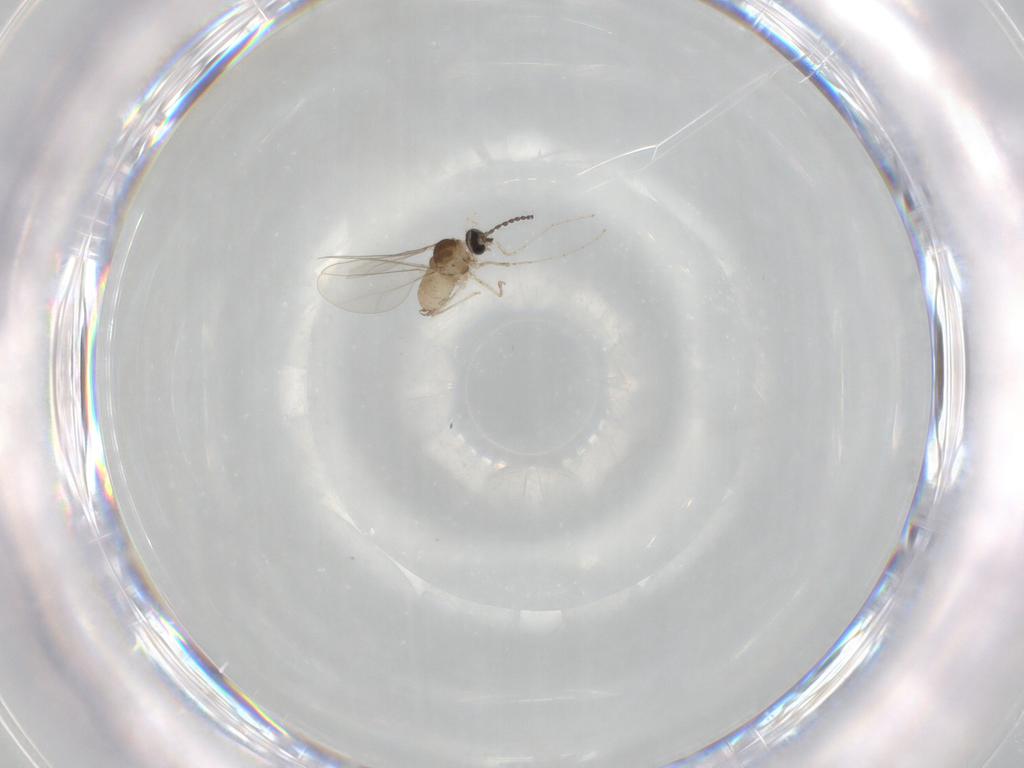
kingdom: Animalia
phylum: Arthropoda
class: Insecta
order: Diptera
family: Cecidomyiidae
